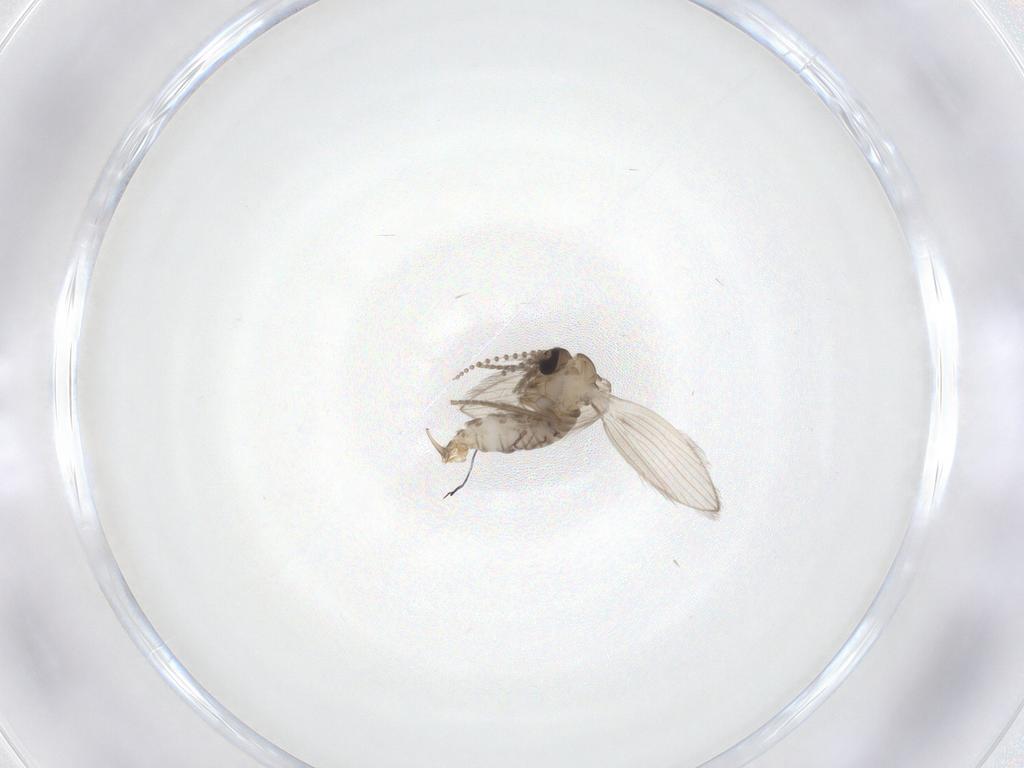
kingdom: Animalia
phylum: Arthropoda
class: Insecta
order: Diptera
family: Psychodidae
